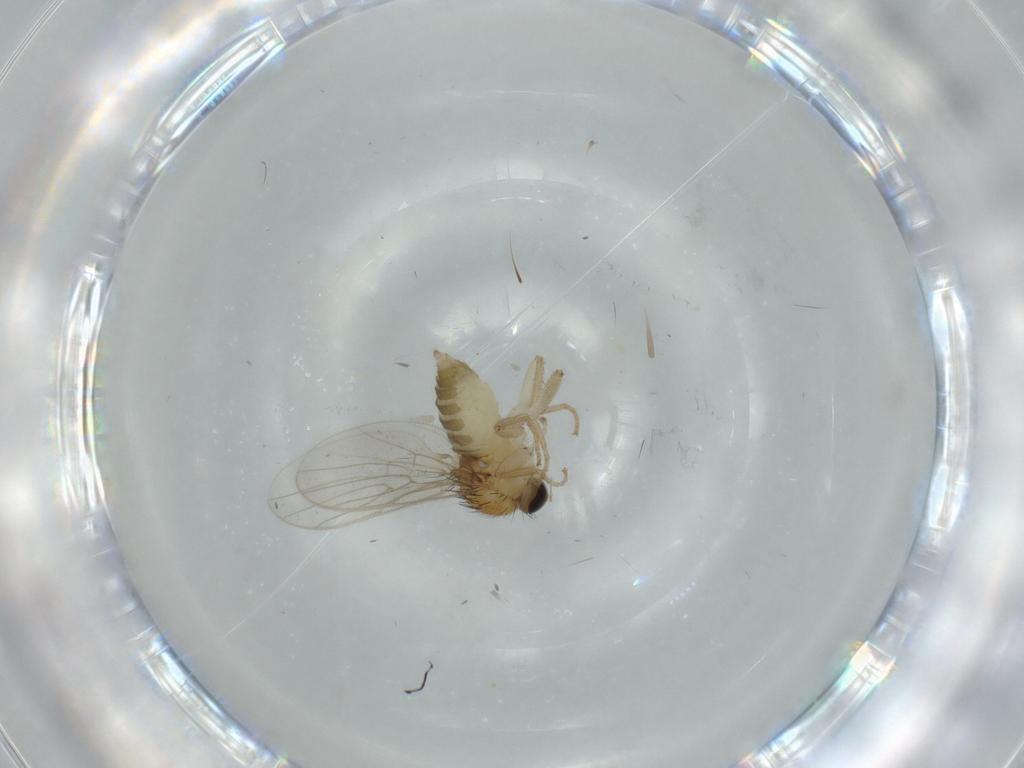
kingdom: Animalia
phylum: Arthropoda
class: Insecta
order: Diptera
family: Hybotidae
